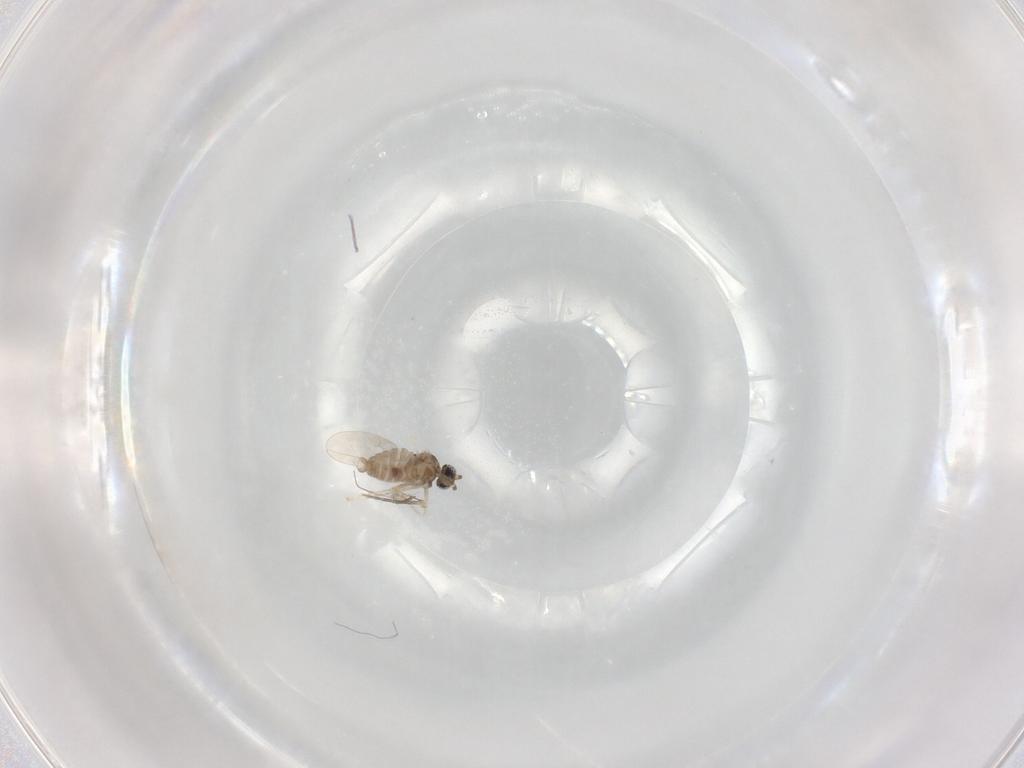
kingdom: Animalia
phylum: Arthropoda
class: Insecta
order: Diptera
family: Cecidomyiidae
